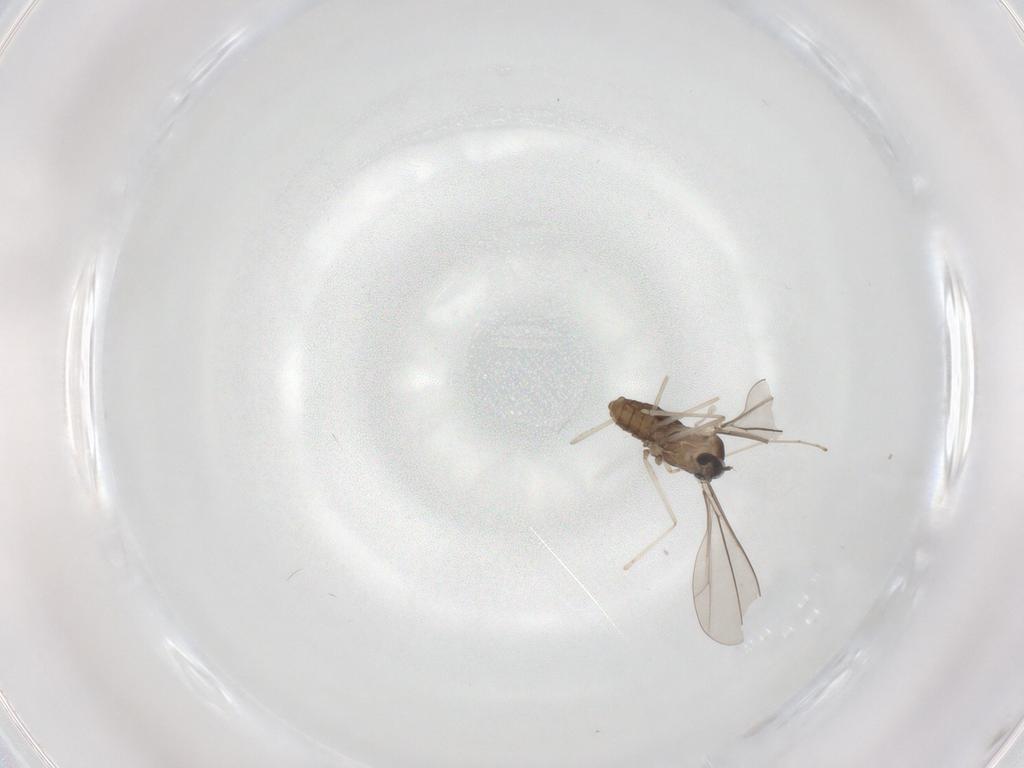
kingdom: Animalia
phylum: Arthropoda
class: Insecta
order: Diptera
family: Cecidomyiidae
